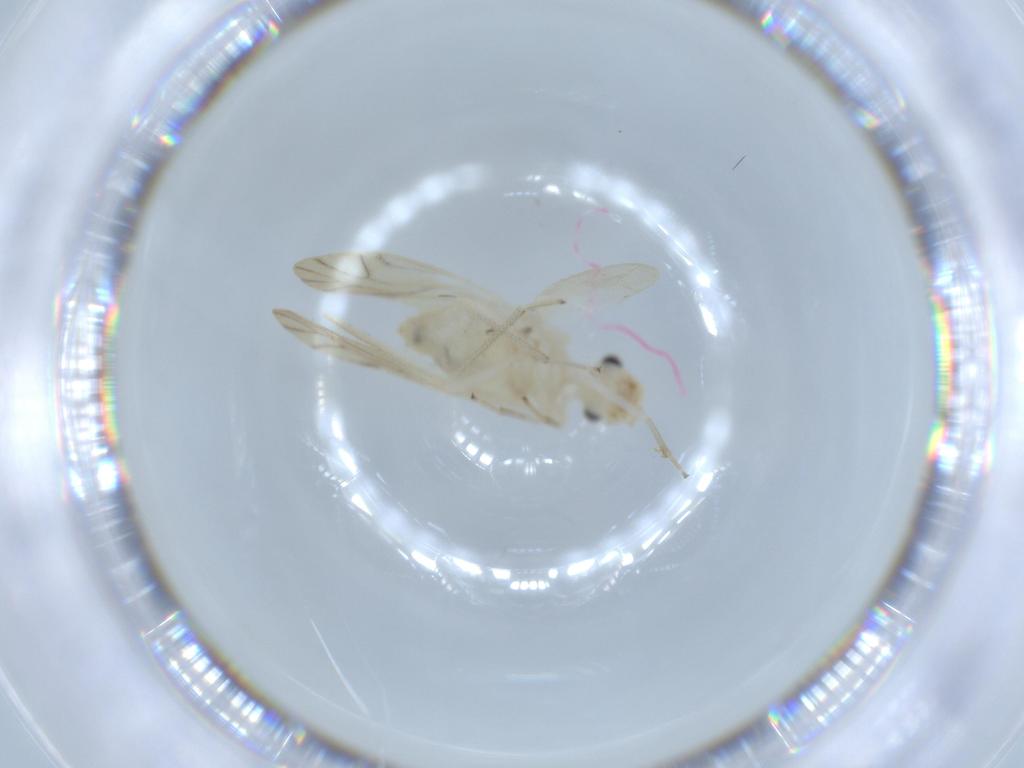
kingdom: Animalia
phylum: Arthropoda
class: Insecta
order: Psocodea
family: Caeciliusidae
